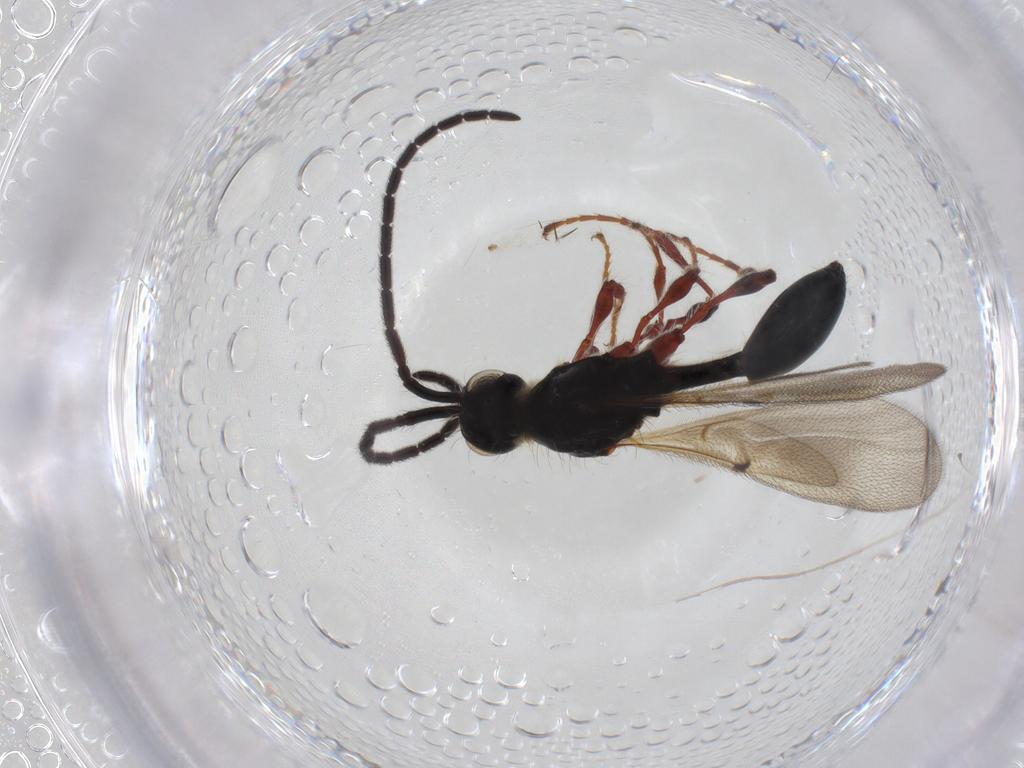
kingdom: Animalia
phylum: Arthropoda
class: Insecta
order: Hymenoptera
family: Diapriidae
